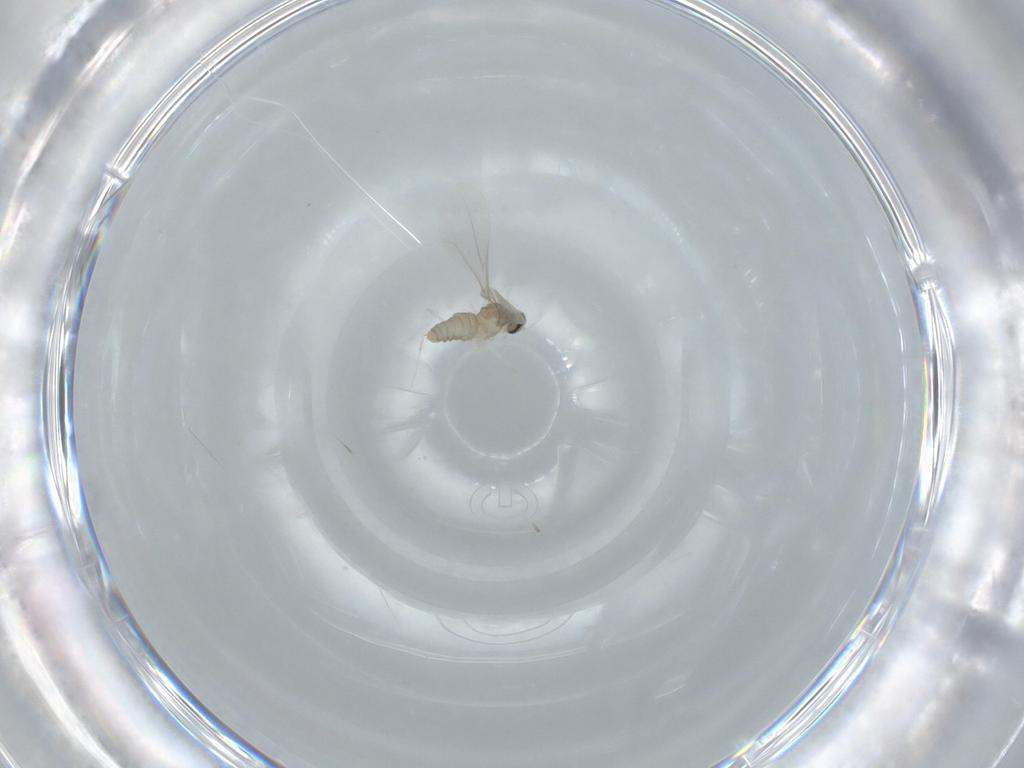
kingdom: Animalia
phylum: Arthropoda
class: Insecta
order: Diptera
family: Cecidomyiidae
